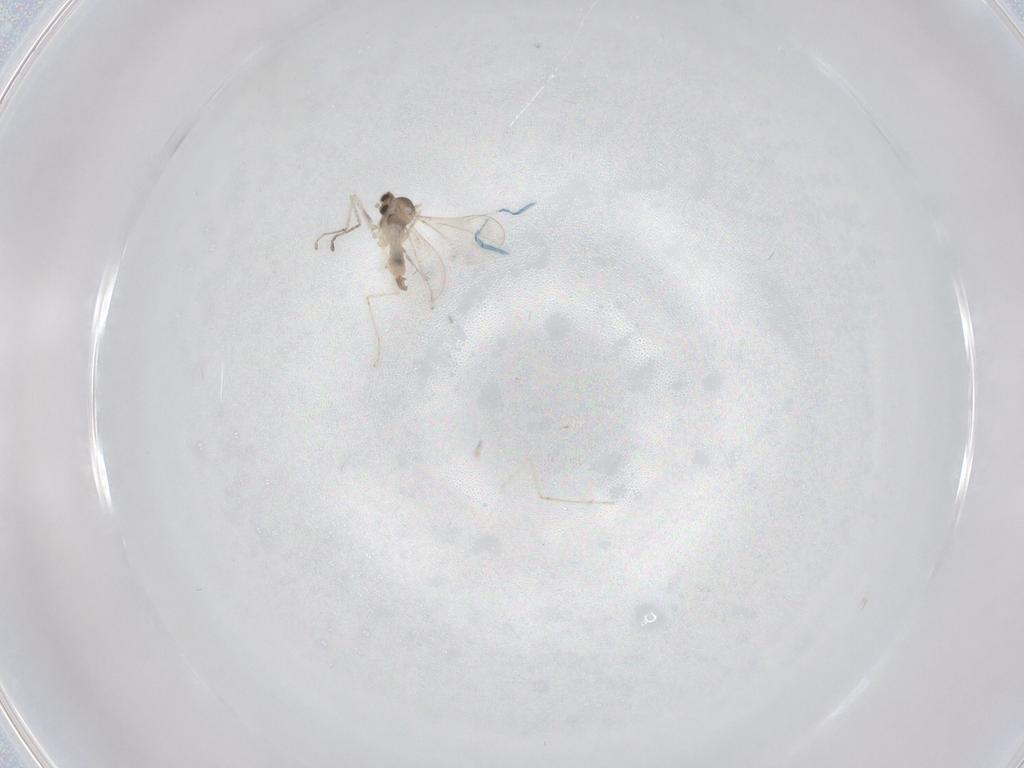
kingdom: Animalia
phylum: Arthropoda
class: Insecta
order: Diptera
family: Cecidomyiidae
